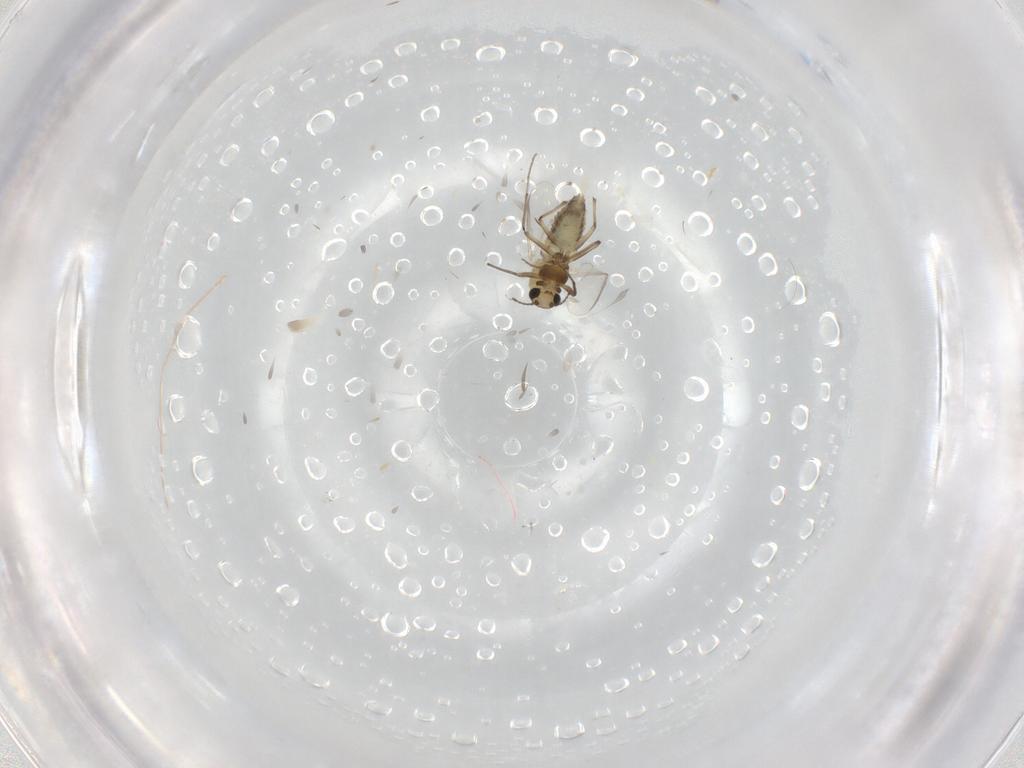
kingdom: Animalia
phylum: Arthropoda
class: Insecta
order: Diptera
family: Chironomidae
